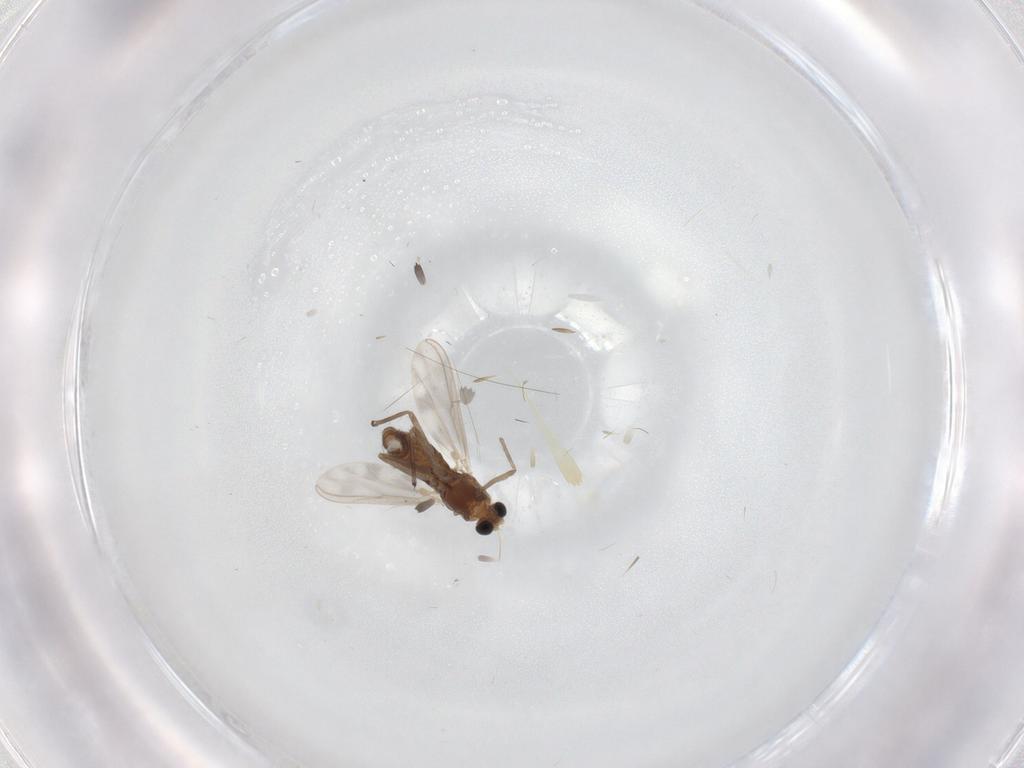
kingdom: Animalia
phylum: Arthropoda
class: Insecta
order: Diptera
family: Chironomidae
